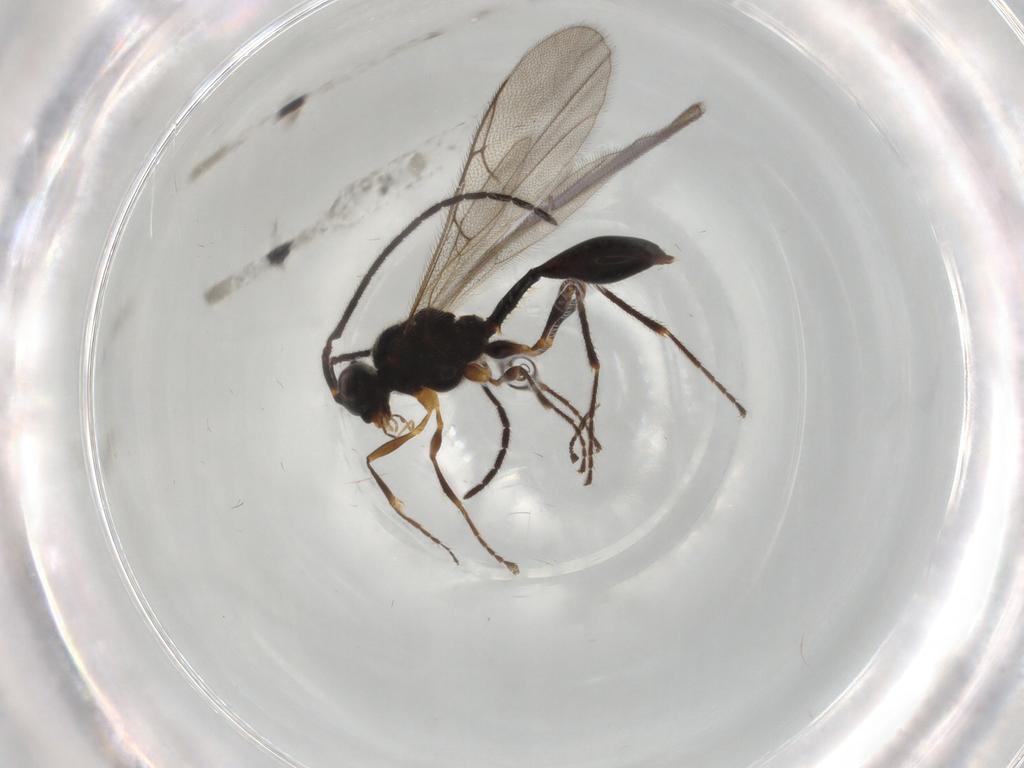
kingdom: Animalia
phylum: Arthropoda
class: Insecta
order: Hymenoptera
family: Scelionidae
